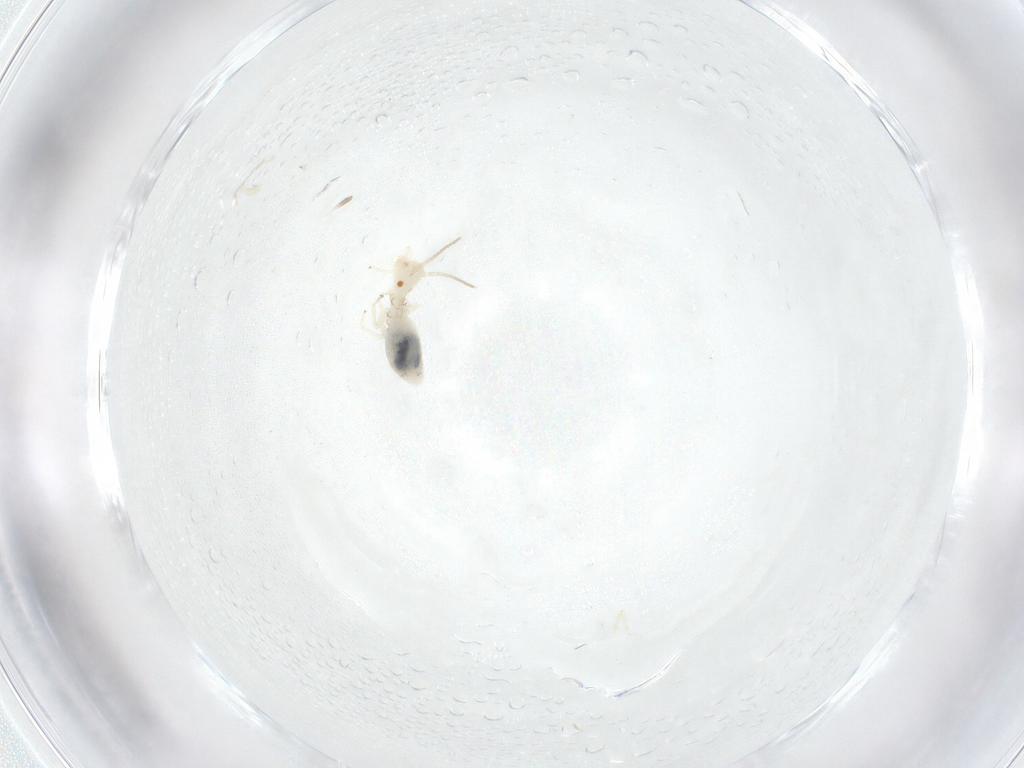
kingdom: Animalia
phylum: Arthropoda
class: Insecta
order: Psocodea
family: Caeciliusidae
